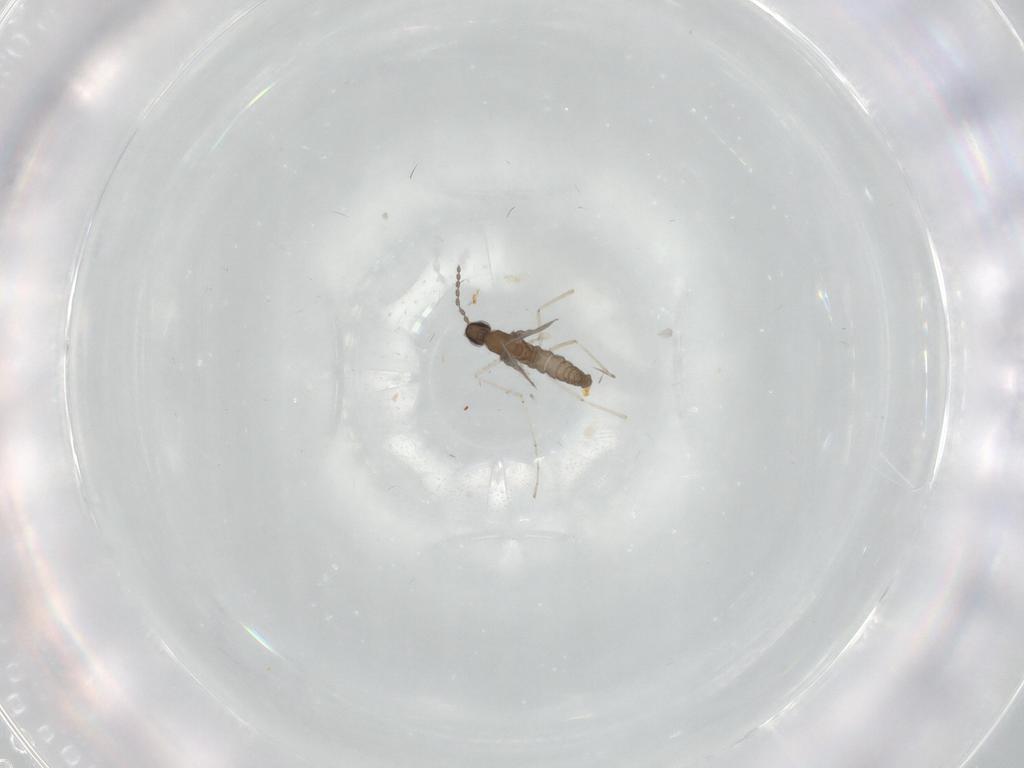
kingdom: Animalia
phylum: Arthropoda
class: Insecta
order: Diptera
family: Cecidomyiidae
